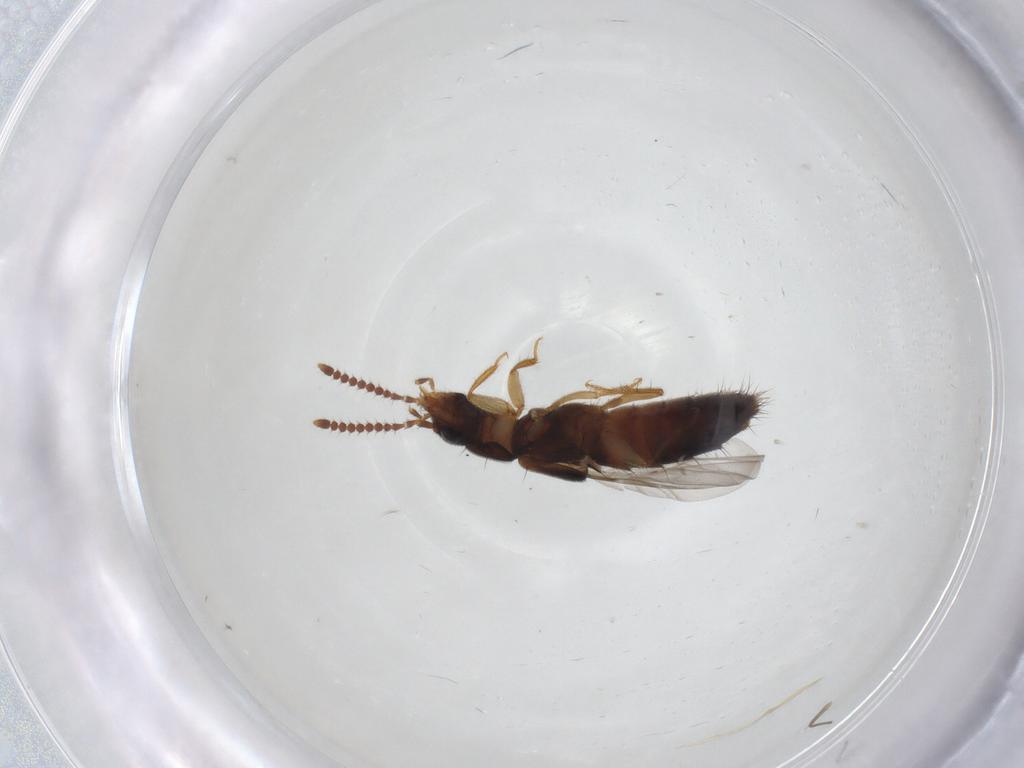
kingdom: Animalia
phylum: Arthropoda
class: Insecta
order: Coleoptera
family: Staphylinidae
